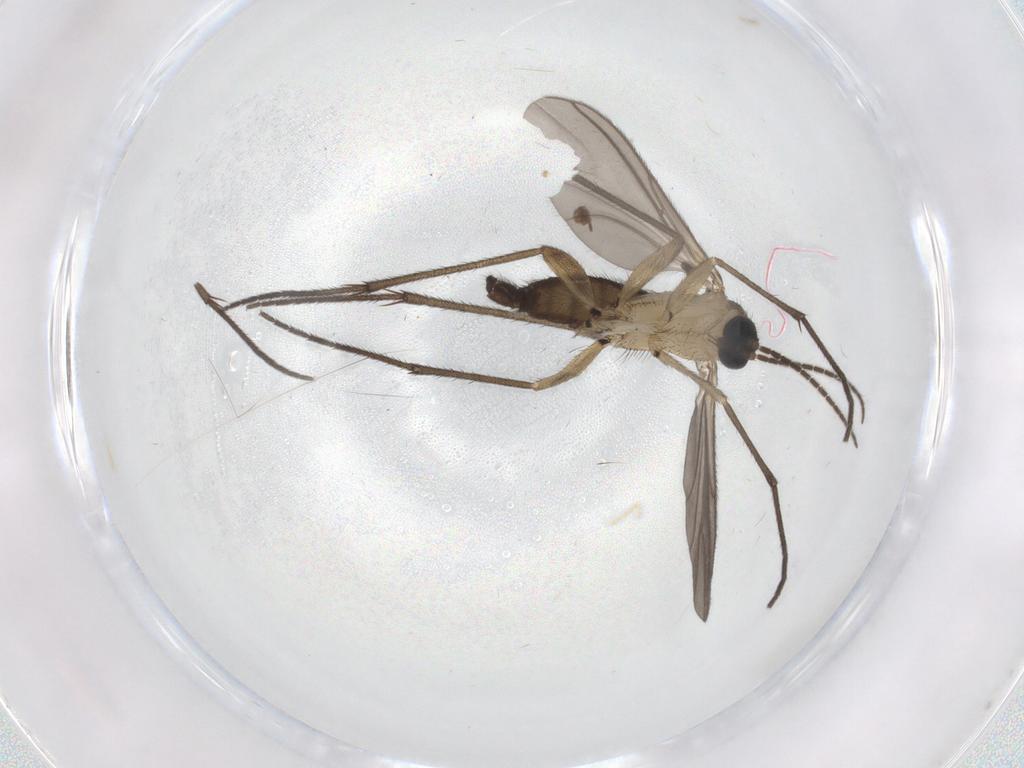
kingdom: Animalia
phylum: Arthropoda
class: Insecta
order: Diptera
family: Sciaridae
